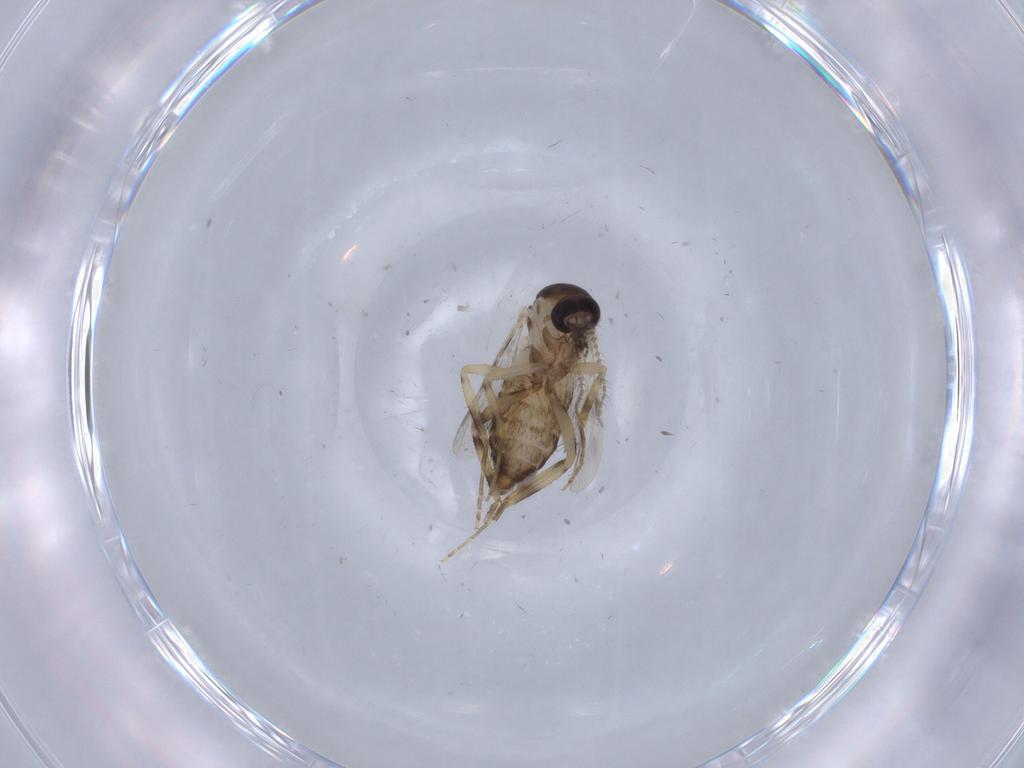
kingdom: Animalia
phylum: Arthropoda
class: Insecta
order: Diptera
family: Ceratopogonidae
